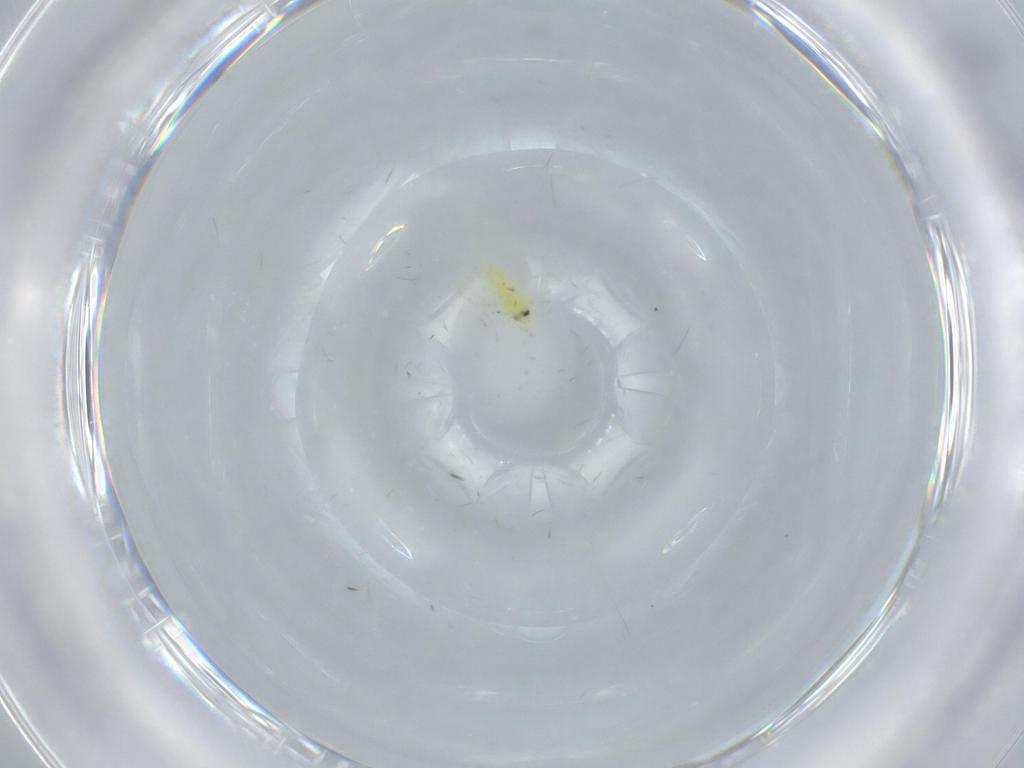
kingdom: Animalia
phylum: Arthropoda
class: Insecta
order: Hemiptera
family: Aleyrodidae
